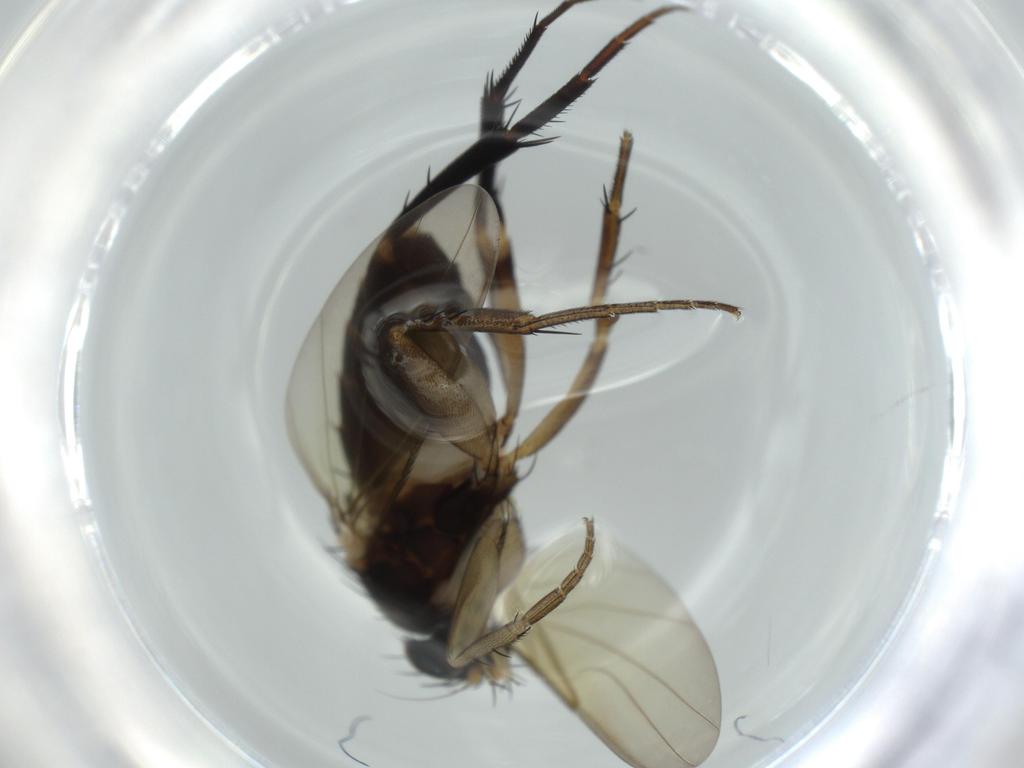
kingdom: Animalia
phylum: Arthropoda
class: Insecta
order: Diptera
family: Phoridae
